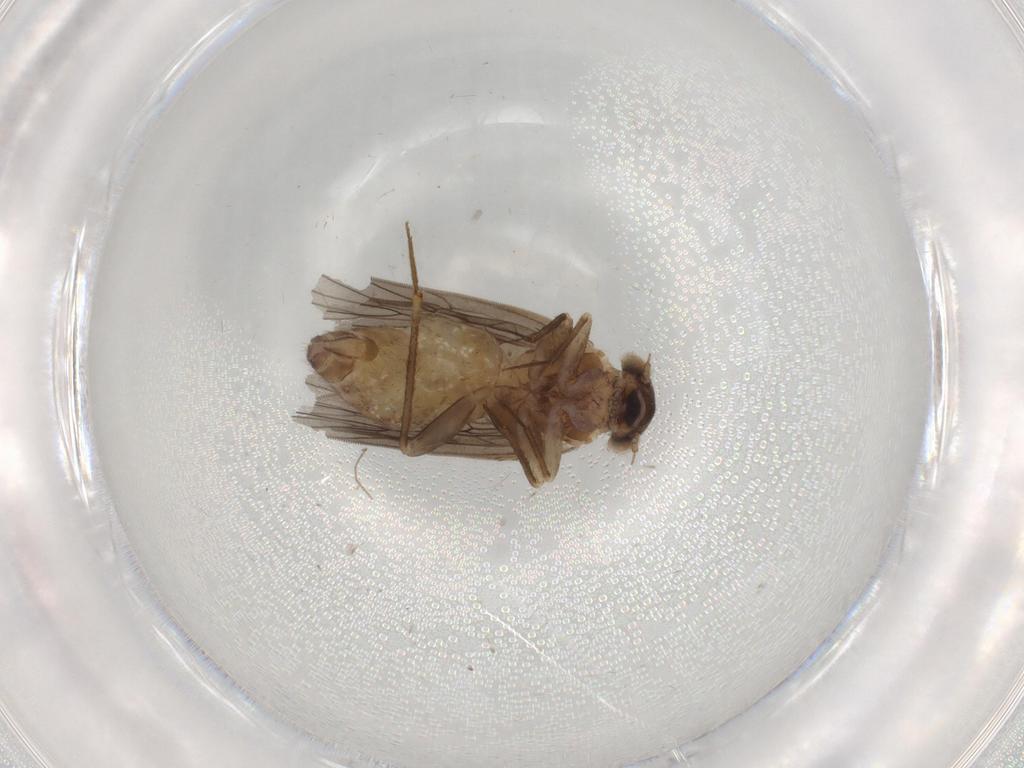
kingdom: Animalia
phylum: Arthropoda
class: Insecta
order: Psocodea
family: Lepidopsocidae
